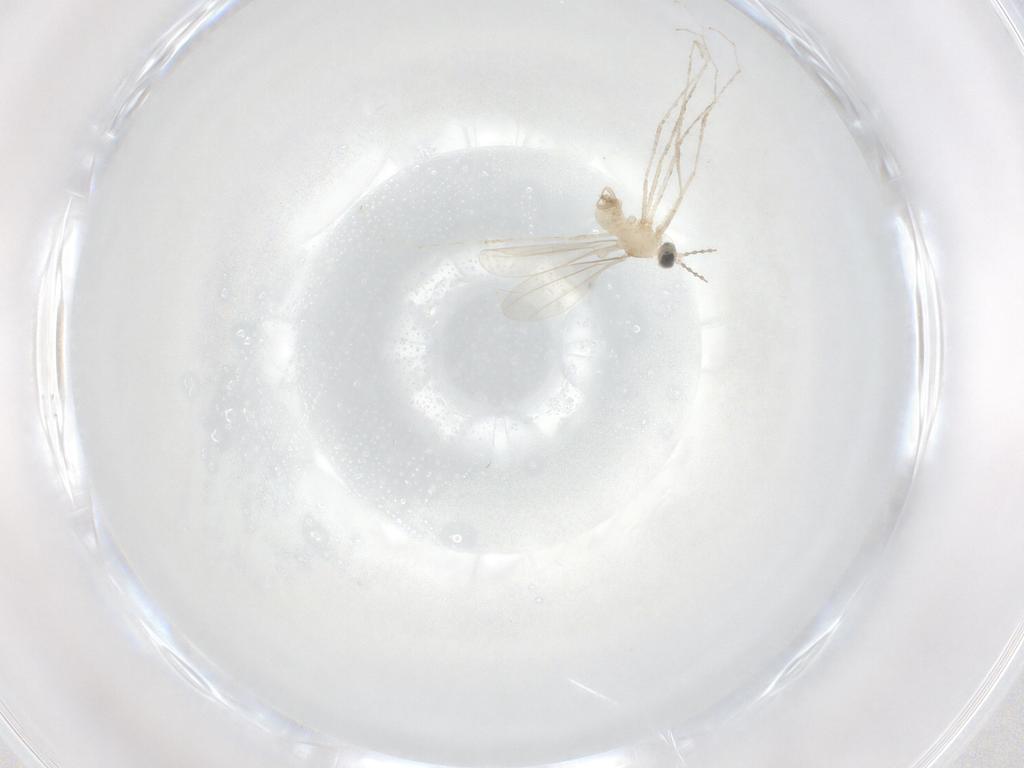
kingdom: Animalia
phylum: Arthropoda
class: Insecta
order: Diptera
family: Cecidomyiidae
